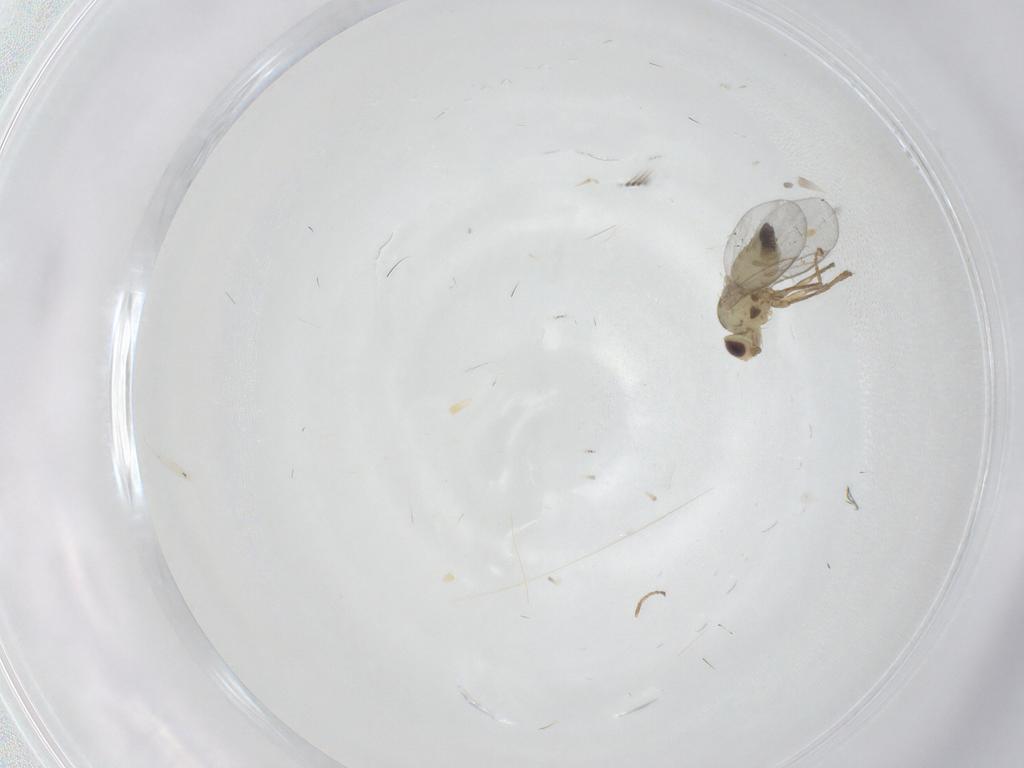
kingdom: Animalia
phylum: Arthropoda
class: Insecta
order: Diptera
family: Agromyzidae
